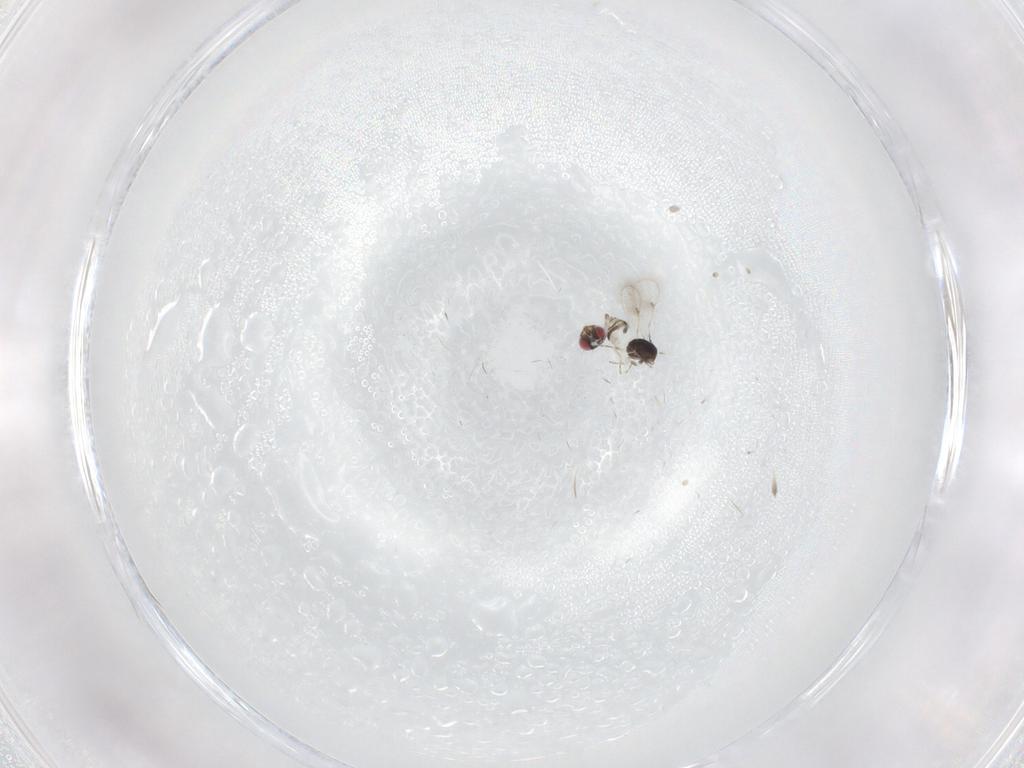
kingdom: Animalia
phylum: Arthropoda
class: Insecta
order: Hymenoptera
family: Eulophidae
